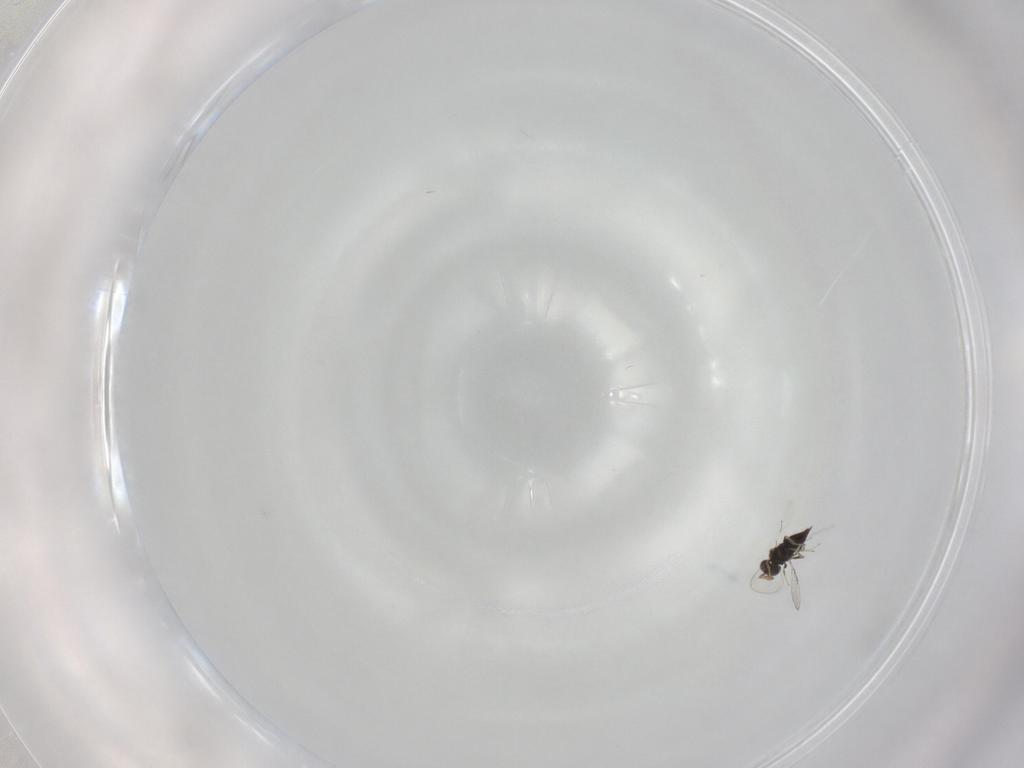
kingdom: Animalia
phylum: Arthropoda
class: Insecta
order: Hymenoptera
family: Trichogrammatidae
